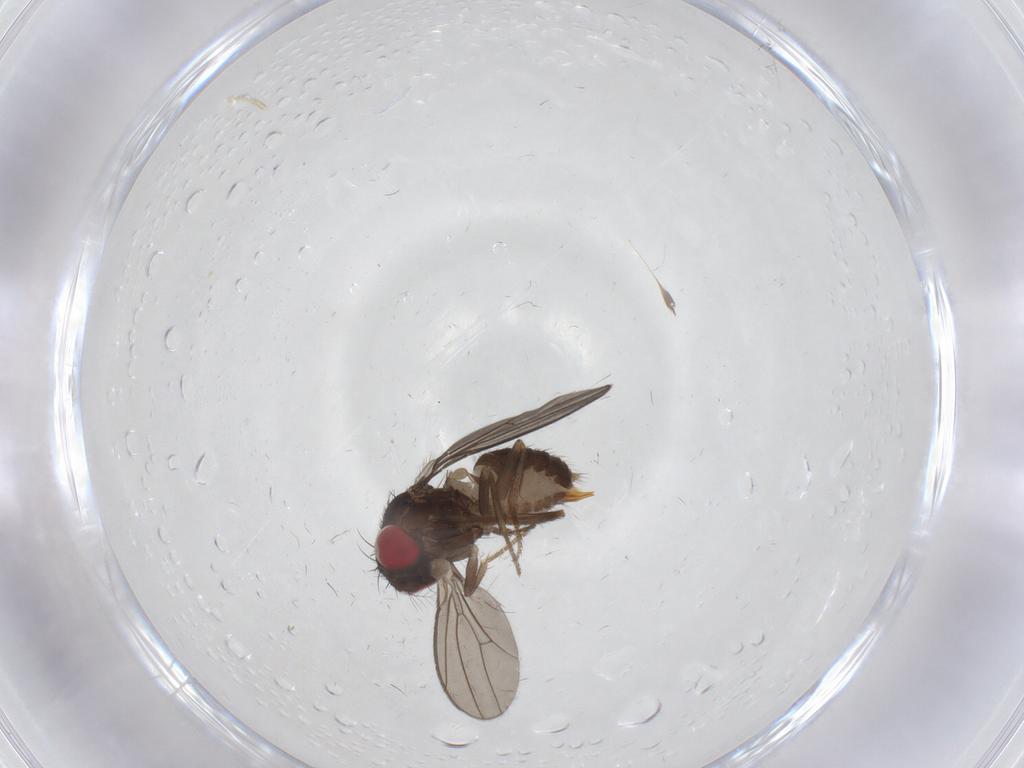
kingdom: Animalia
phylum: Arthropoda
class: Insecta
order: Diptera
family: Drosophilidae
